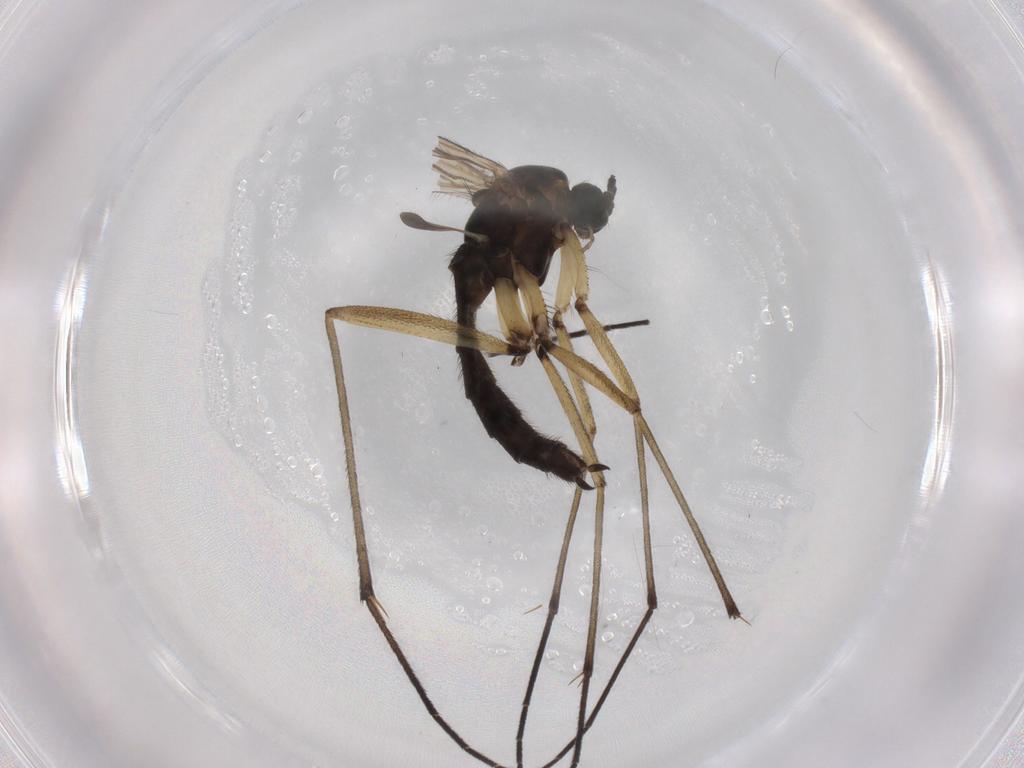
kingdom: Animalia
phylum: Arthropoda
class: Insecta
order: Diptera
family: Sciaridae
